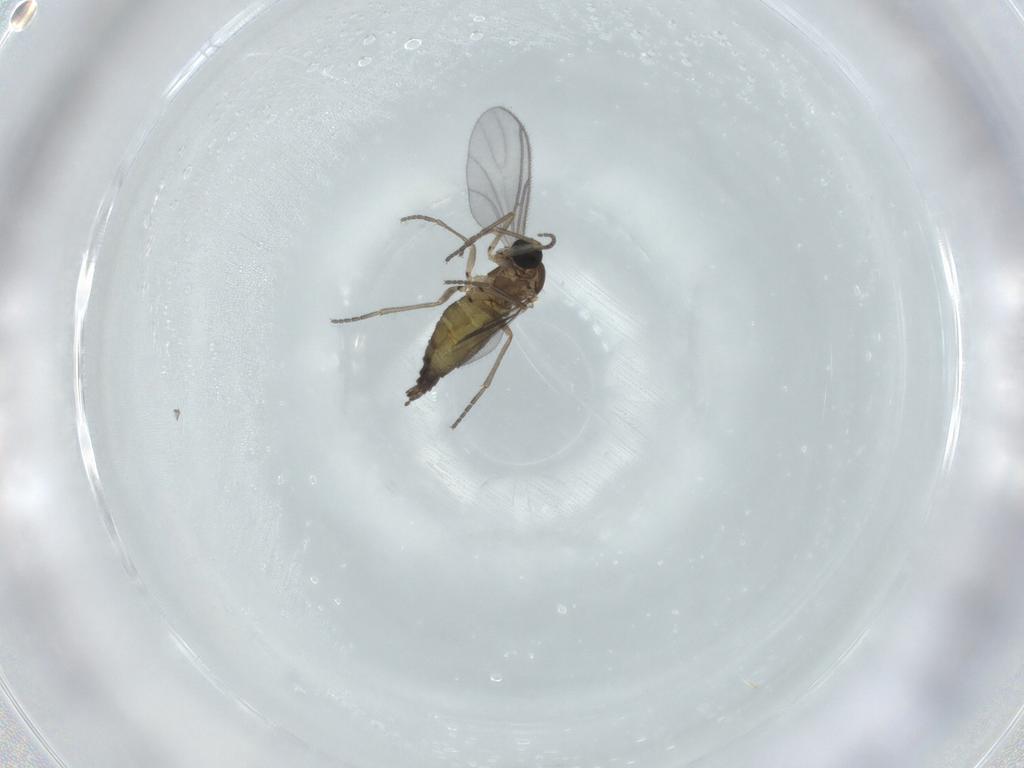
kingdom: Animalia
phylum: Arthropoda
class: Insecta
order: Diptera
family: Sciaridae
